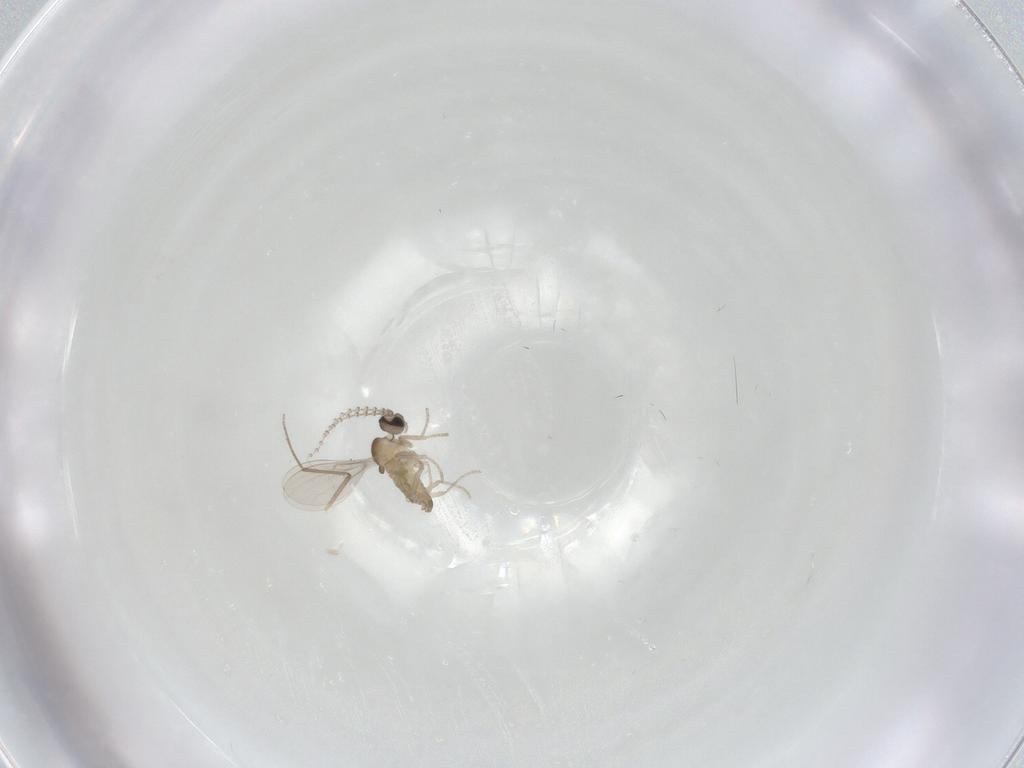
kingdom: Animalia
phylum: Arthropoda
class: Insecta
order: Diptera
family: Cecidomyiidae
